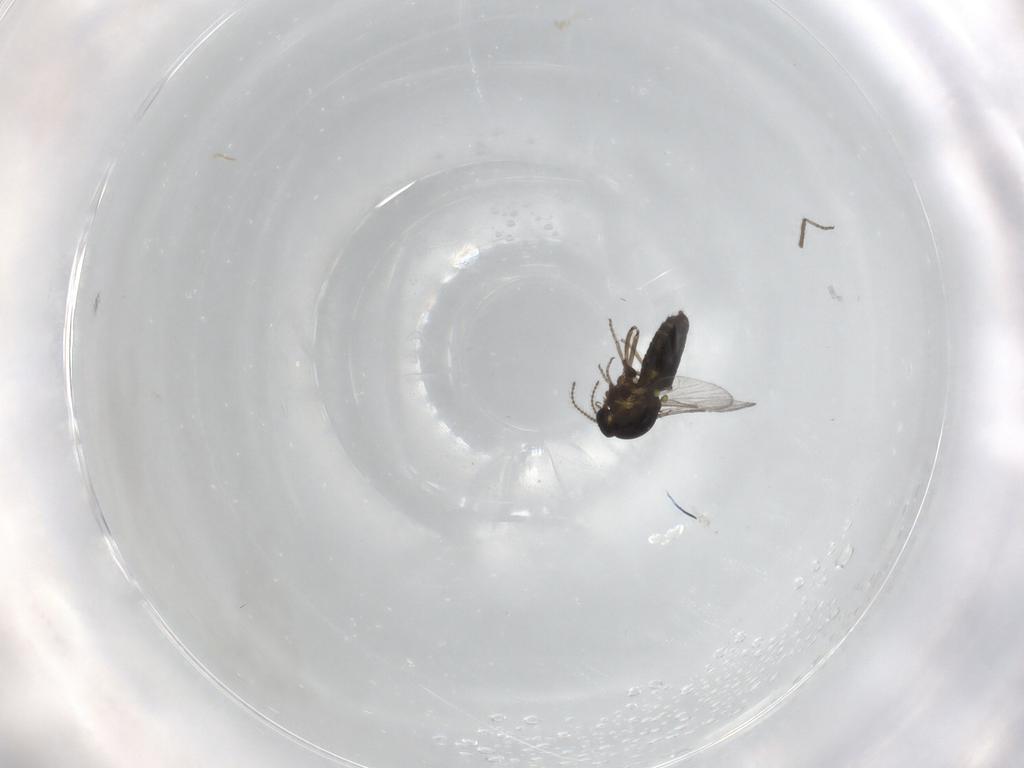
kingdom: Animalia
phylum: Arthropoda
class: Insecta
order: Diptera
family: Ceratopogonidae
